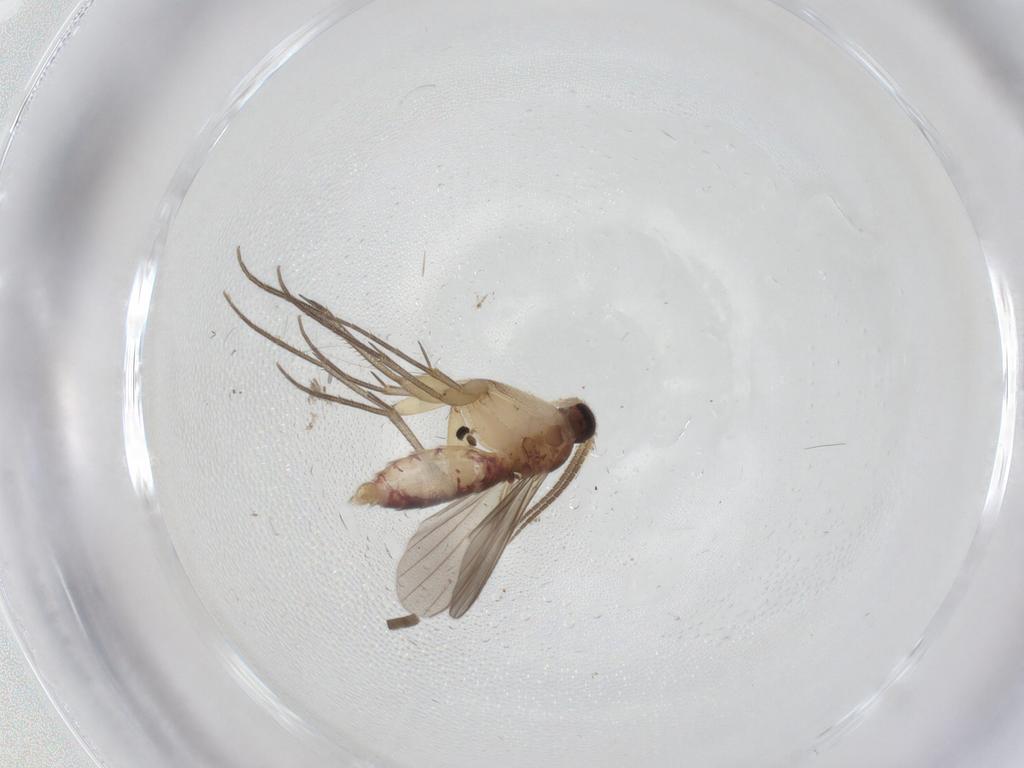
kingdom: Animalia
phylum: Arthropoda
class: Insecta
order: Diptera
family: Mycetophilidae
